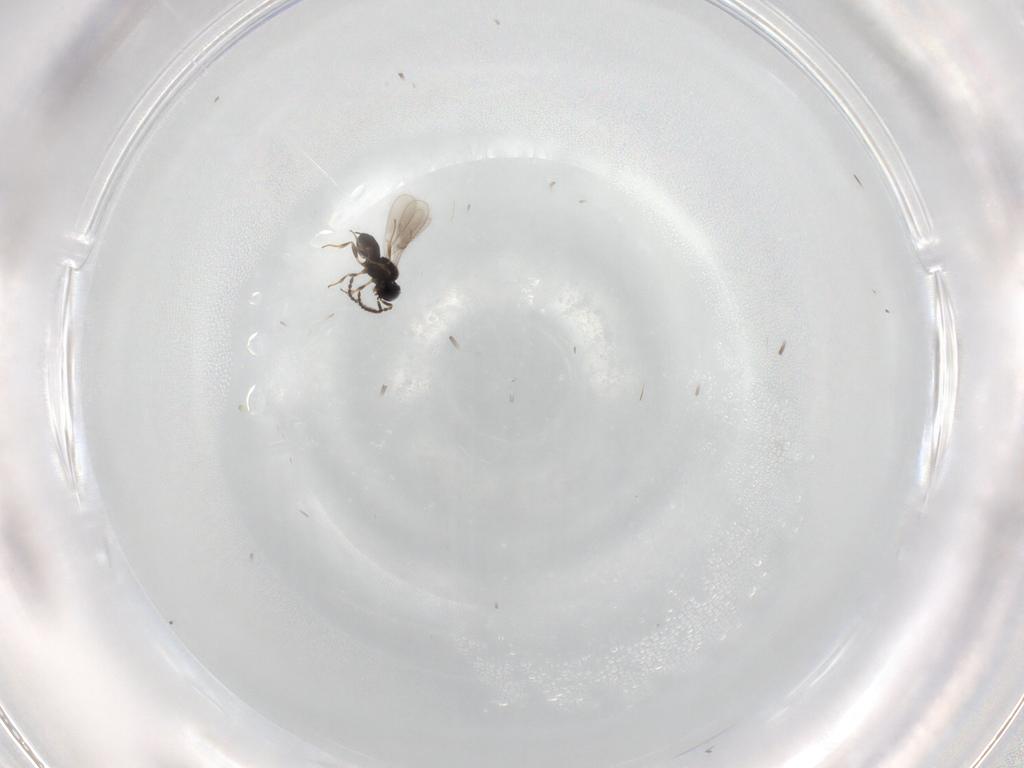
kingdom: Animalia
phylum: Arthropoda
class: Insecta
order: Hymenoptera
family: Scelionidae
